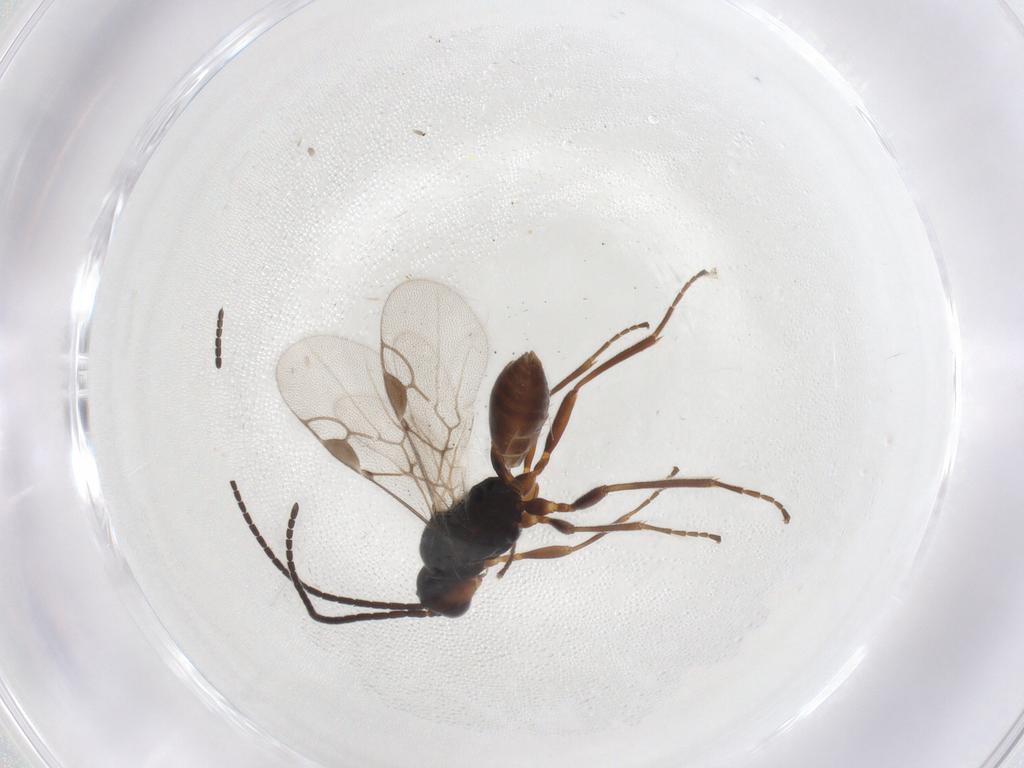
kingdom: Animalia
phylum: Arthropoda
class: Insecta
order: Hymenoptera
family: Braconidae
